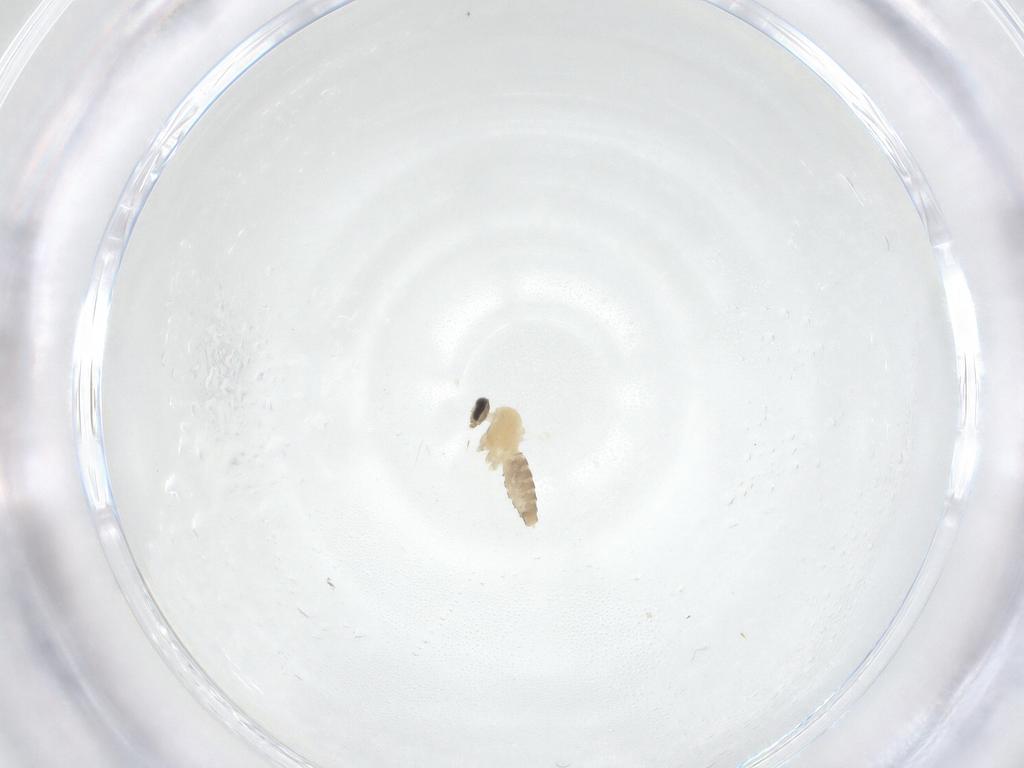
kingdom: Animalia
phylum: Arthropoda
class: Insecta
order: Diptera
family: Cecidomyiidae
